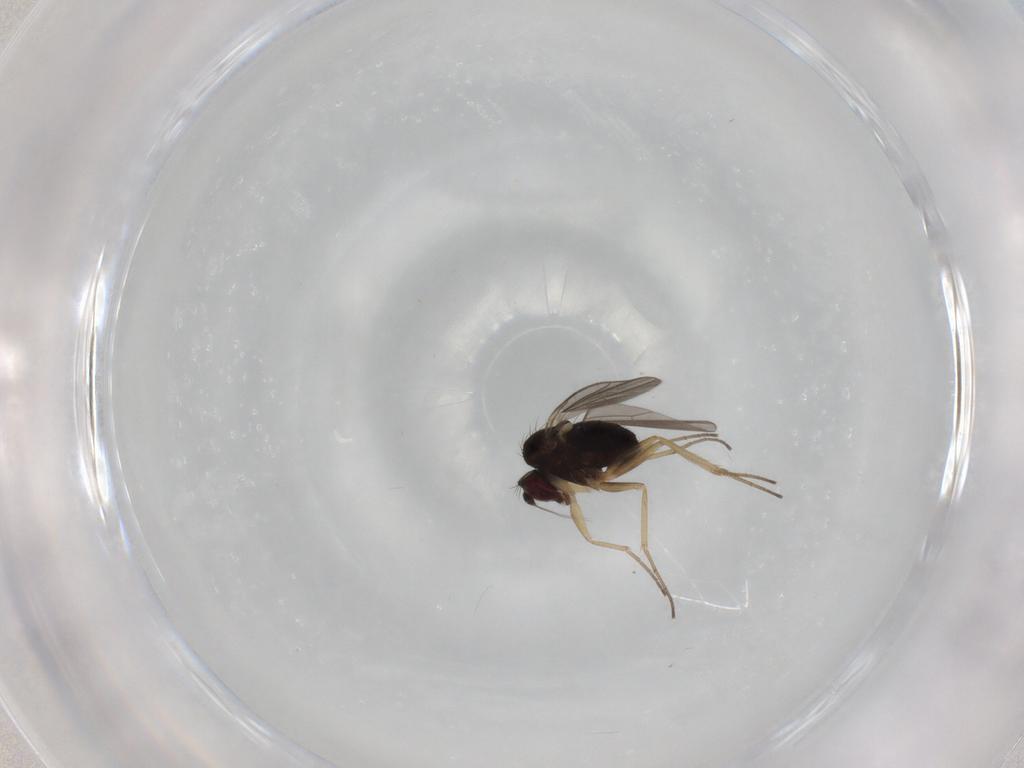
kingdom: Animalia
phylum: Arthropoda
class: Insecta
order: Diptera
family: Dolichopodidae
